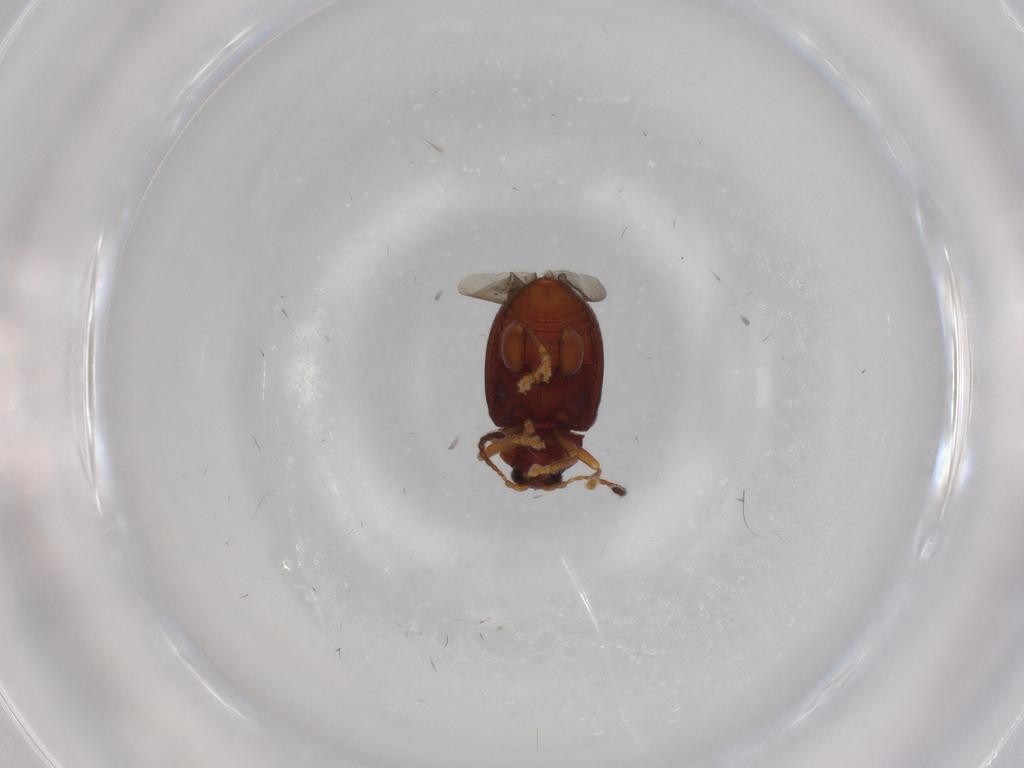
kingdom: Animalia
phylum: Arthropoda
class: Insecta
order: Coleoptera
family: Chrysomelidae
